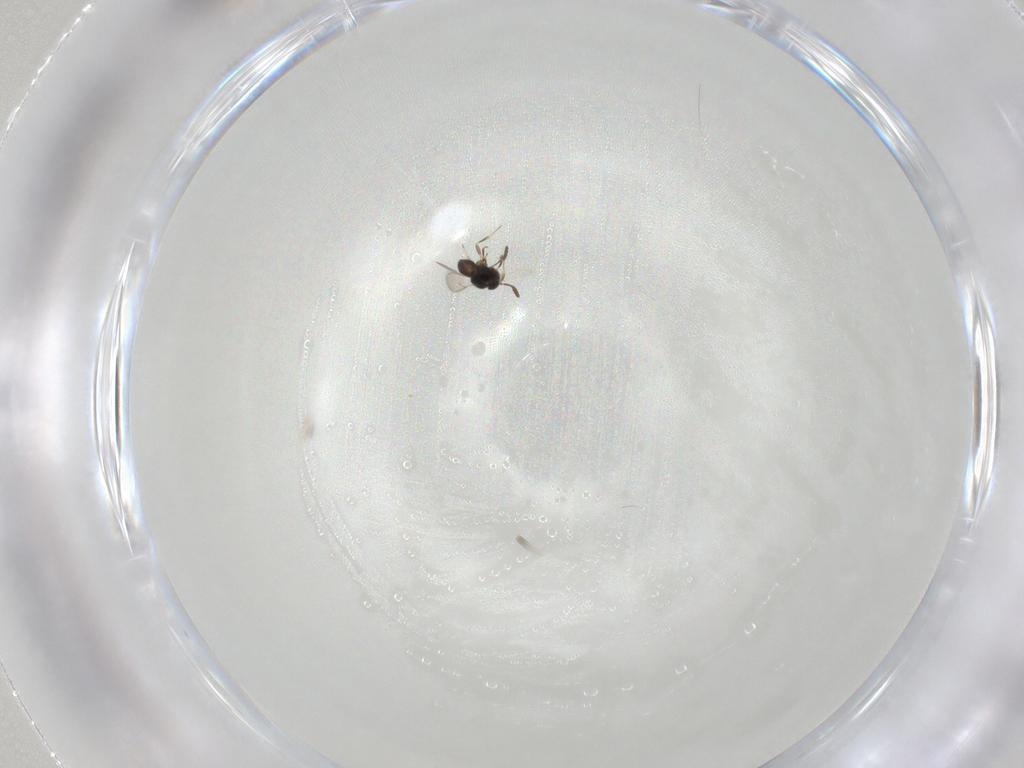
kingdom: Animalia
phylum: Arthropoda
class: Insecta
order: Hymenoptera
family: Scelionidae
